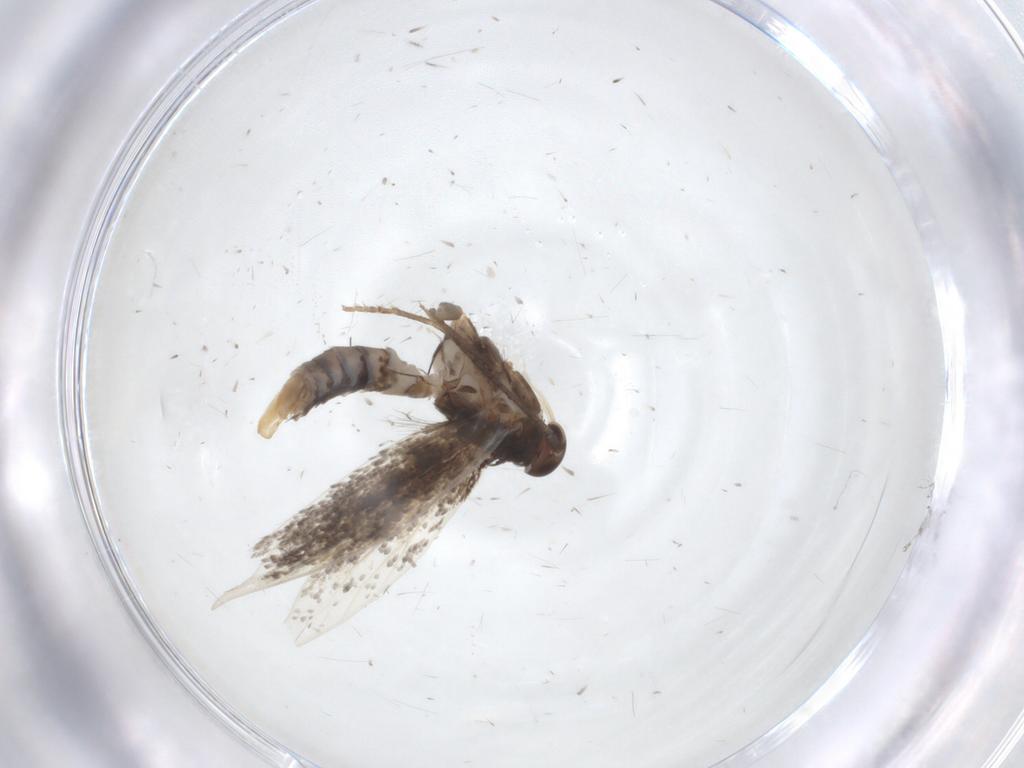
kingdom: Animalia
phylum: Arthropoda
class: Insecta
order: Lepidoptera
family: Elachistidae
